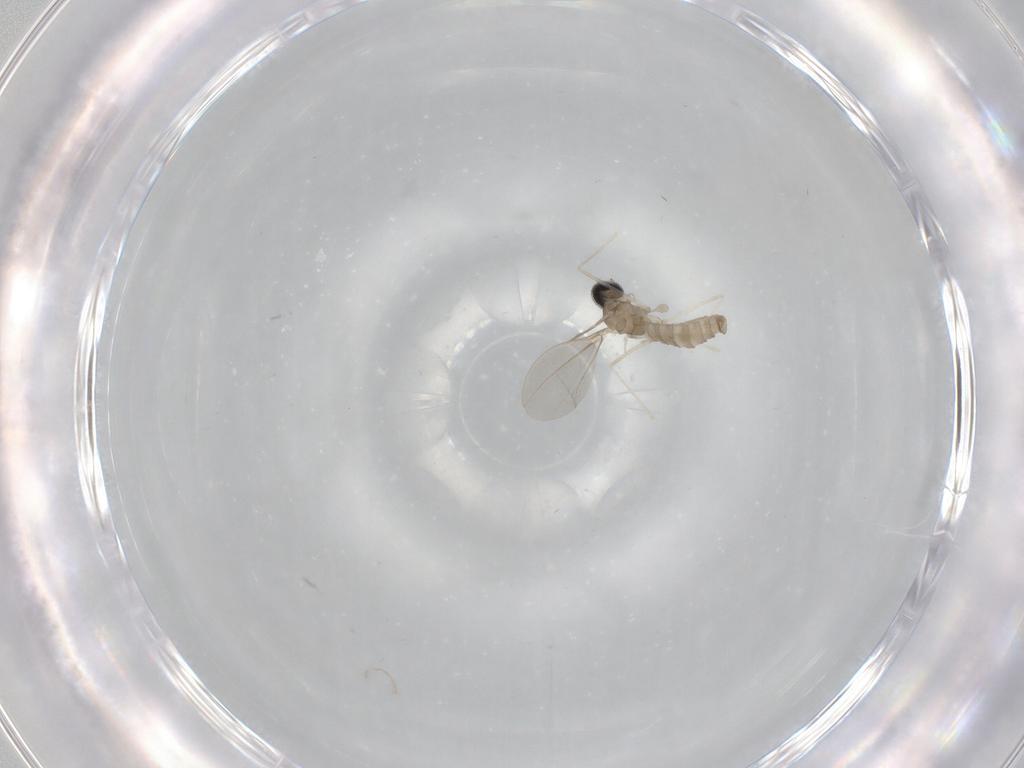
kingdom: Animalia
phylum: Arthropoda
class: Insecta
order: Diptera
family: Cecidomyiidae
